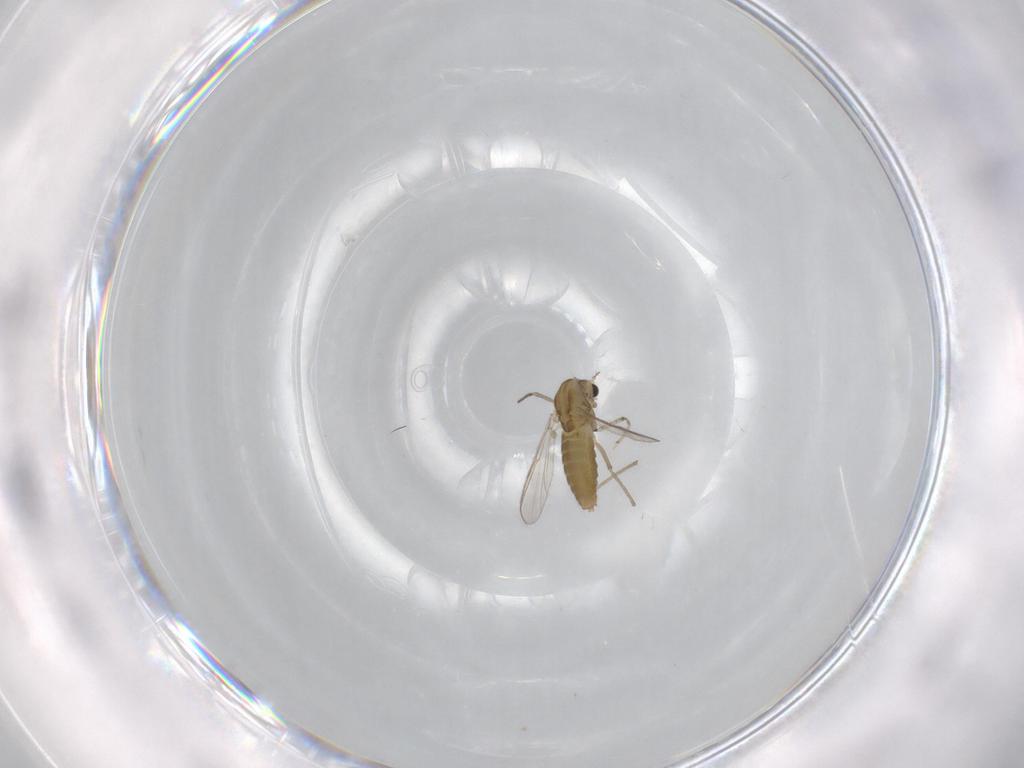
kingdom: Animalia
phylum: Arthropoda
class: Insecta
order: Diptera
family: Chironomidae
